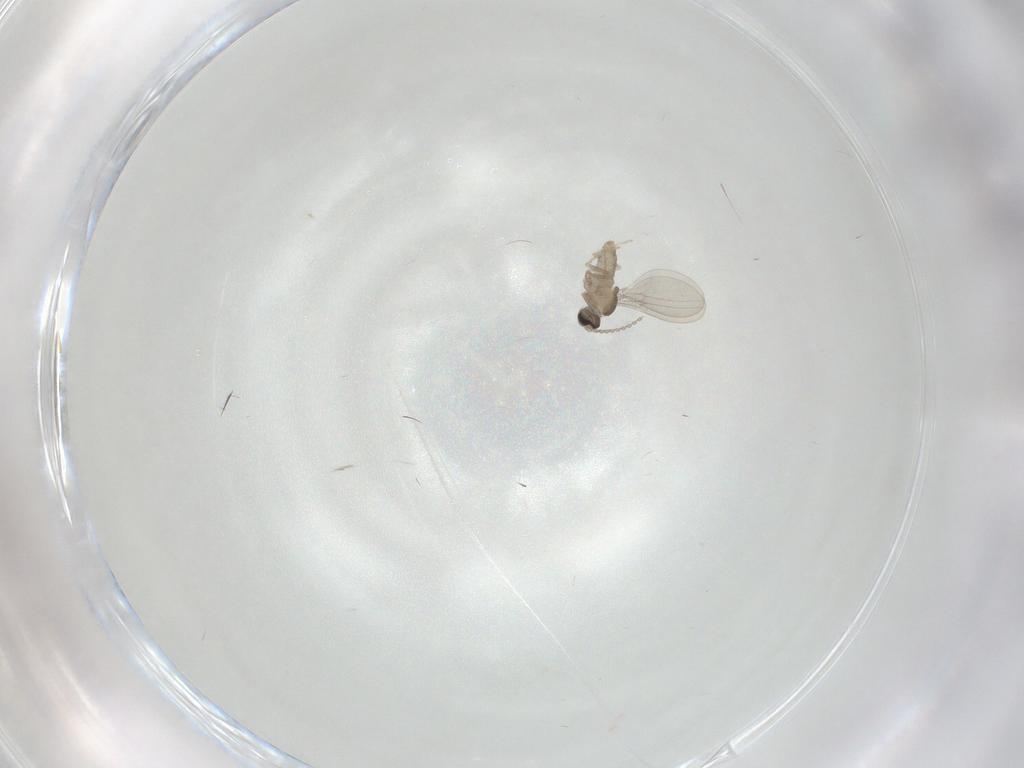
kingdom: Animalia
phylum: Arthropoda
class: Insecta
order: Diptera
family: Cecidomyiidae
